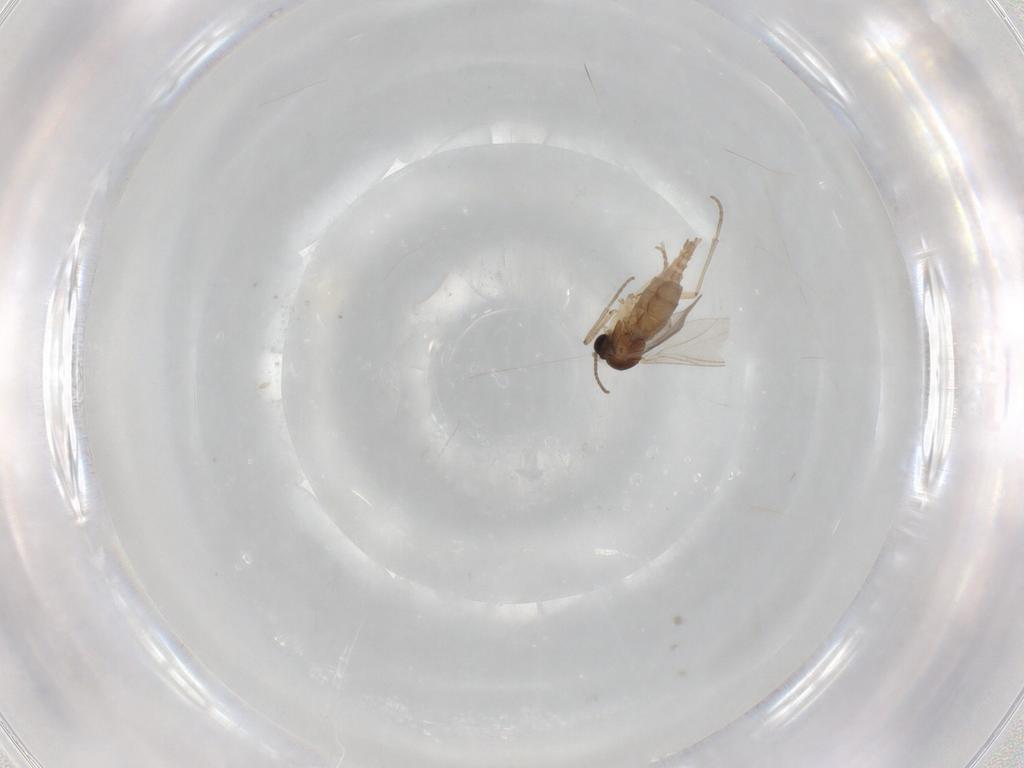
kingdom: Animalia
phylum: Arthropoda
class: Insecta
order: Diptera
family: Sciaridae
